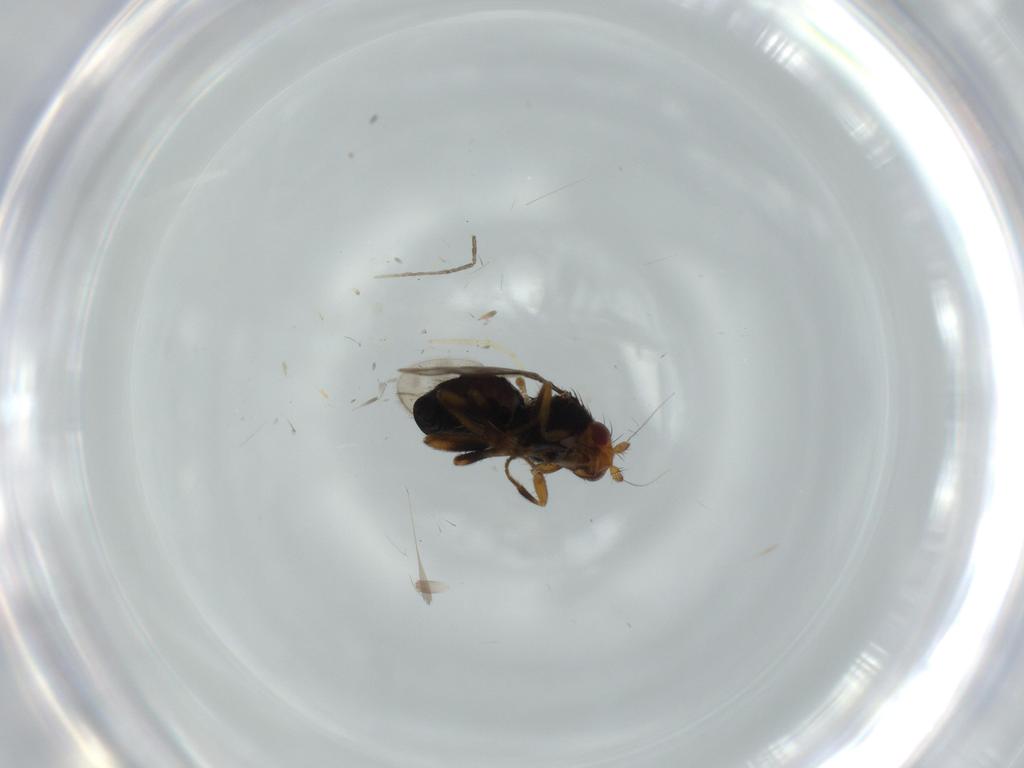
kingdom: Animalia
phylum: Arthropoda
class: Insecta
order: Diptera
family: Sphaeroceridae
